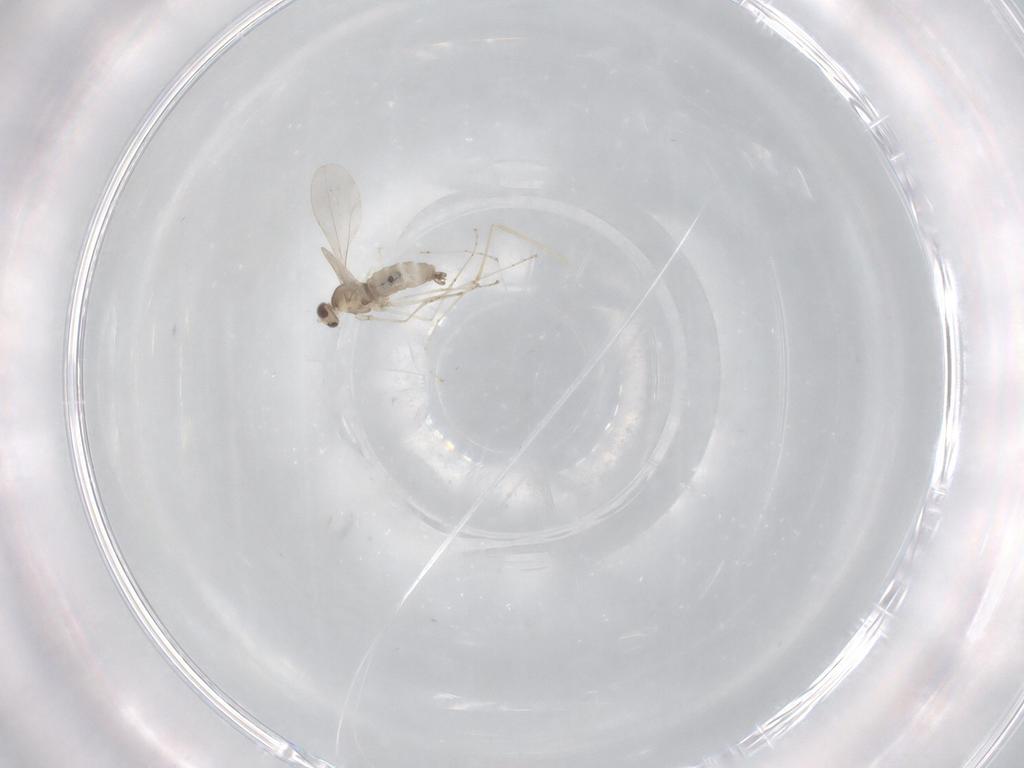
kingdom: Animalia
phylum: Arthropoda
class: Insecta
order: Diptera
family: Cecidomyiidae
